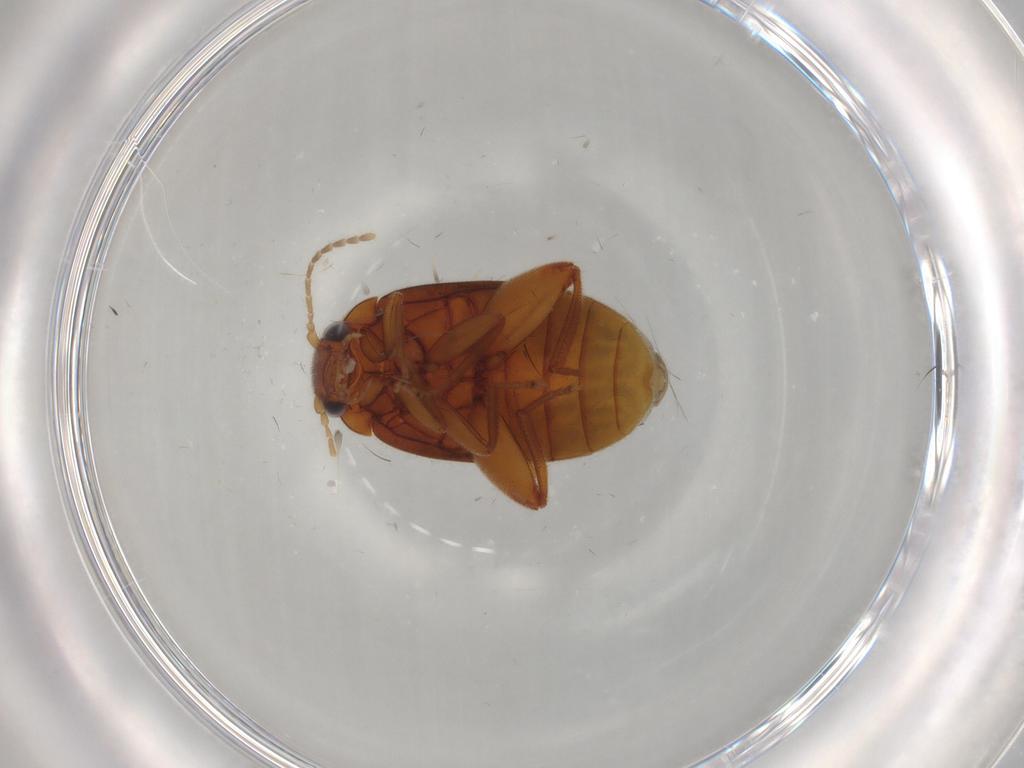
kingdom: Animalia
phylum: Arthropoda
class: Insecta
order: Coleoptera
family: Scirtidae
